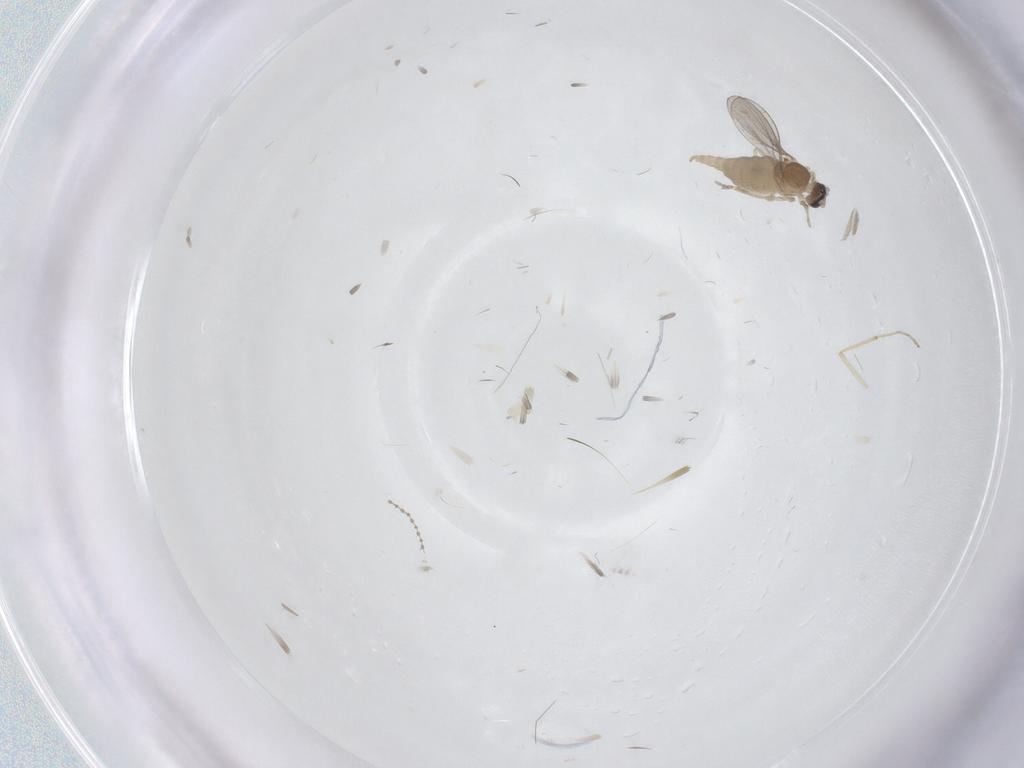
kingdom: Animalia
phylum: Arthropoda
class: Insecta
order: Diptera
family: Cecidomyiidae
